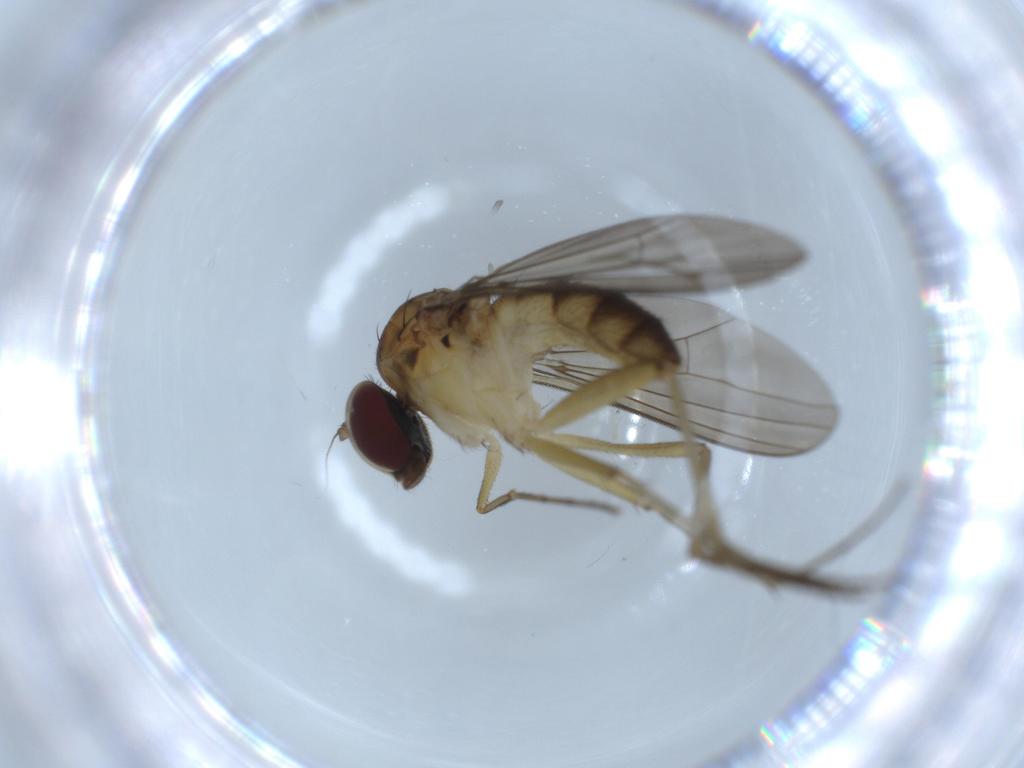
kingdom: Animalia
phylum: Arthropoda
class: Insecta
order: Diptera
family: Dolichopodidae
